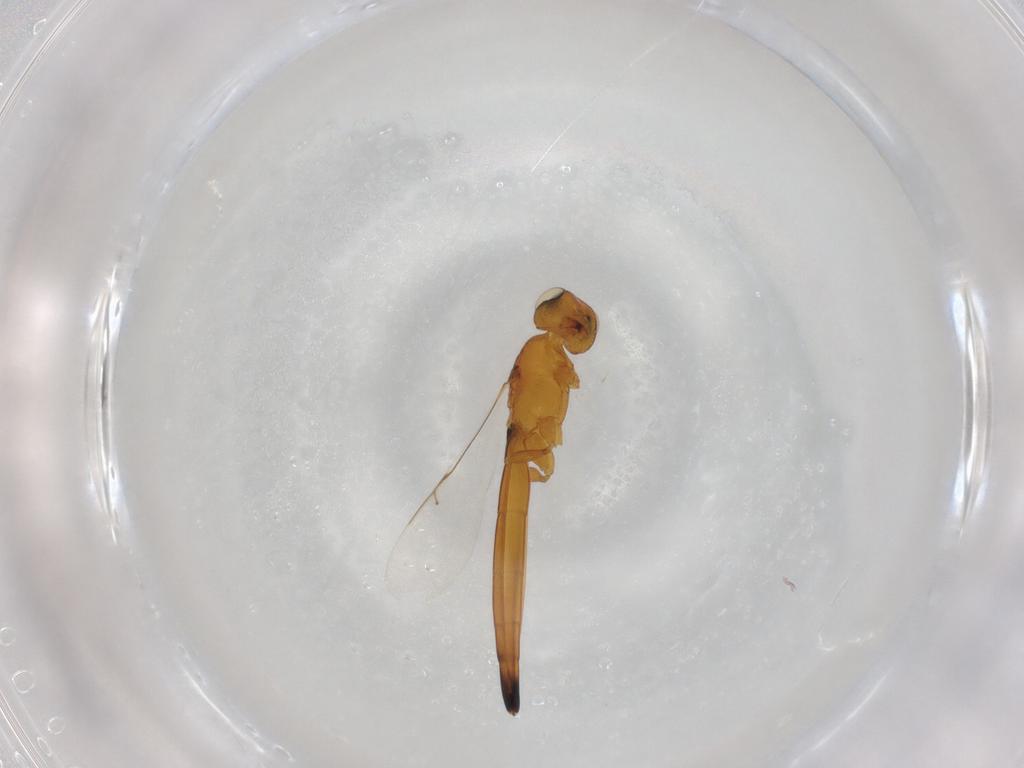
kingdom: Animalia
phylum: Arthropoda
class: Insecta
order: Hymenoptera
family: Scelionidae
